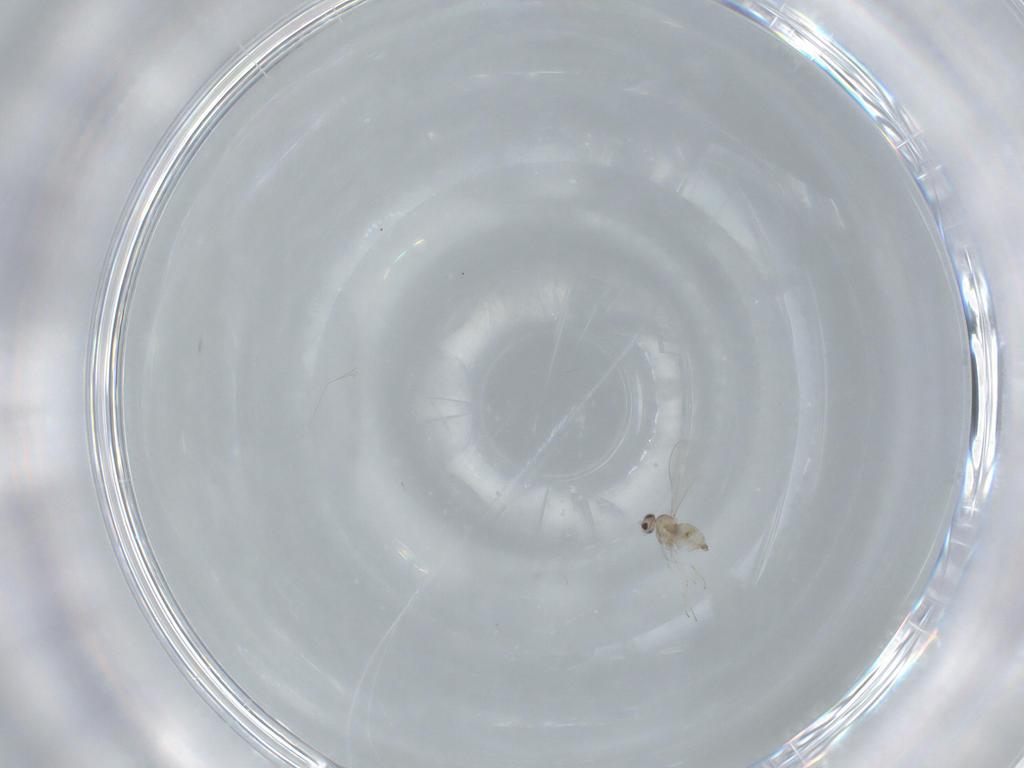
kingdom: Animalia
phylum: Arthropoda
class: Insecta
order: Diptera
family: Cecidomyiidae
